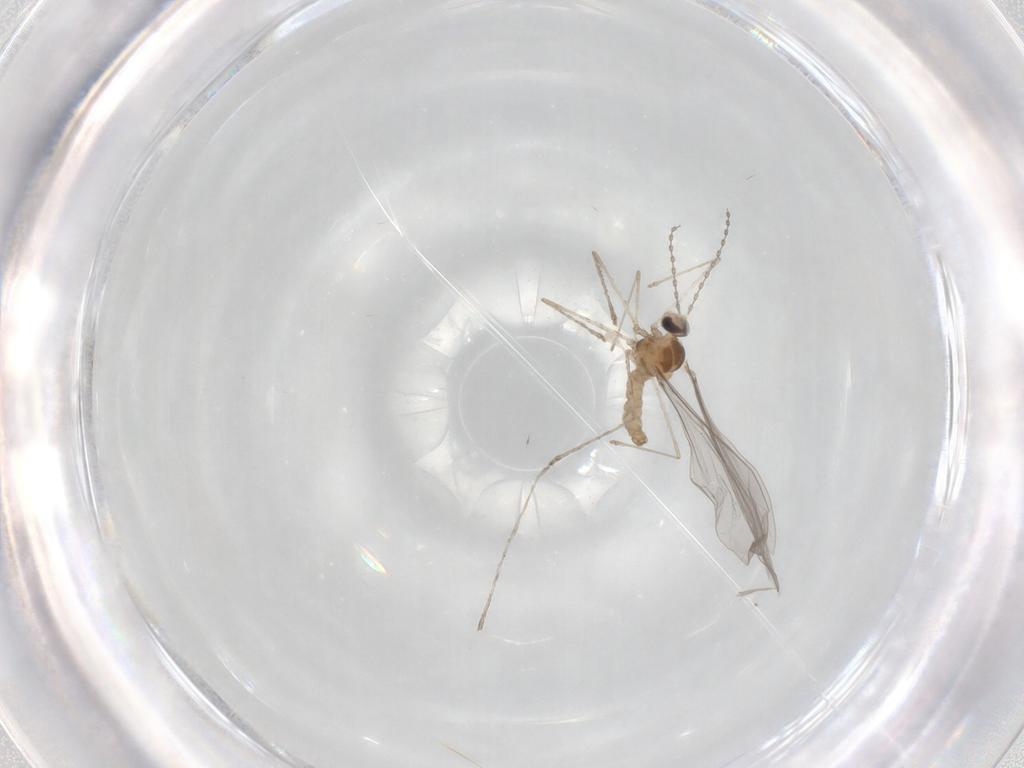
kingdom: Animalia
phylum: Arthropoda
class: Insecta
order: Diptera
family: Limoniidae
